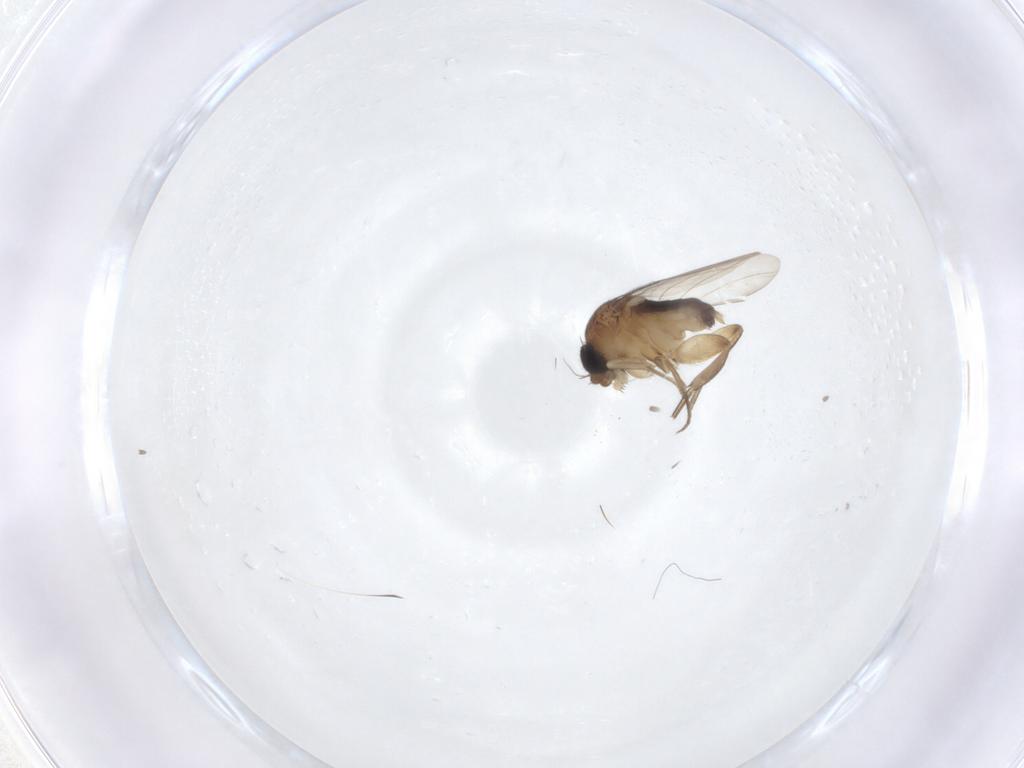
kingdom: Animalia
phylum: Arthropoda
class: Insecta
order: Diptera
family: Phoridae
